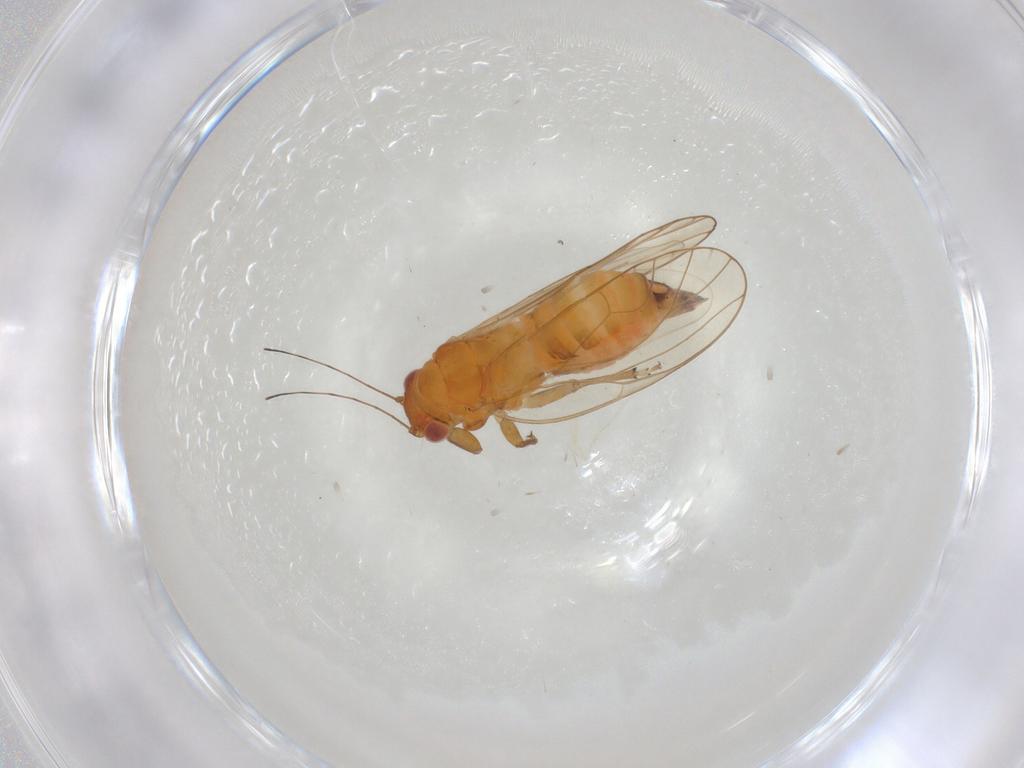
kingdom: Animalia
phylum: Arthropoda
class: Insecta
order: Hemiptera
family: Psyllidae
